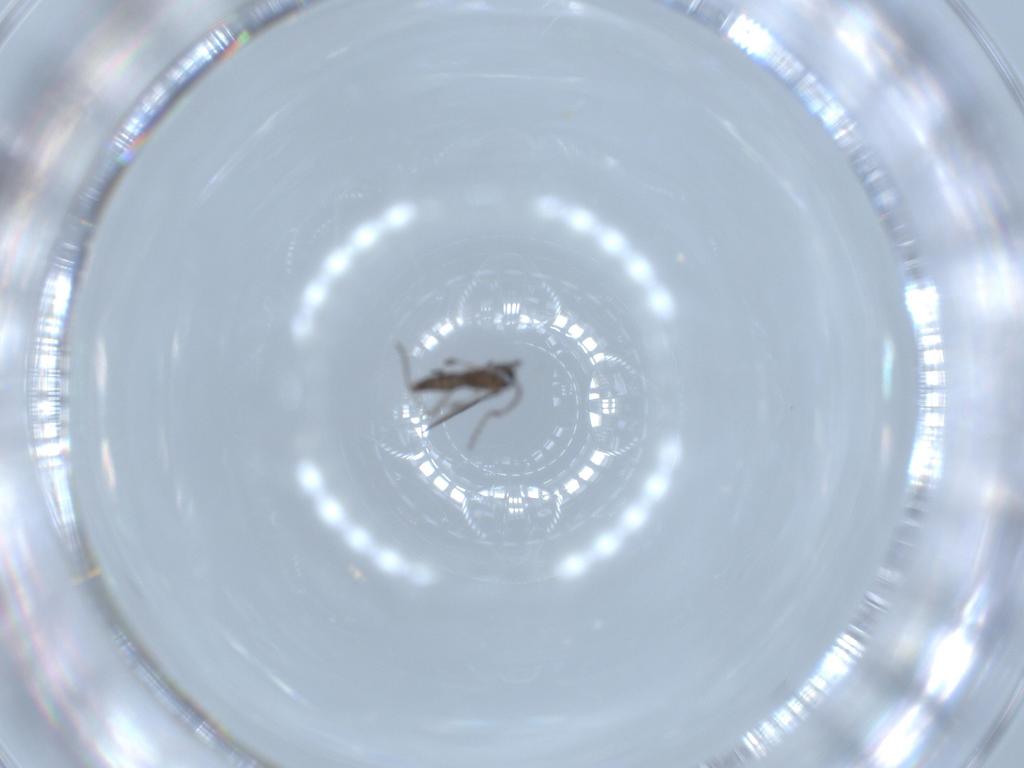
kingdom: Animalia
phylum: Arthropoda
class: Insecta
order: Diptera
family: Sciaridae
